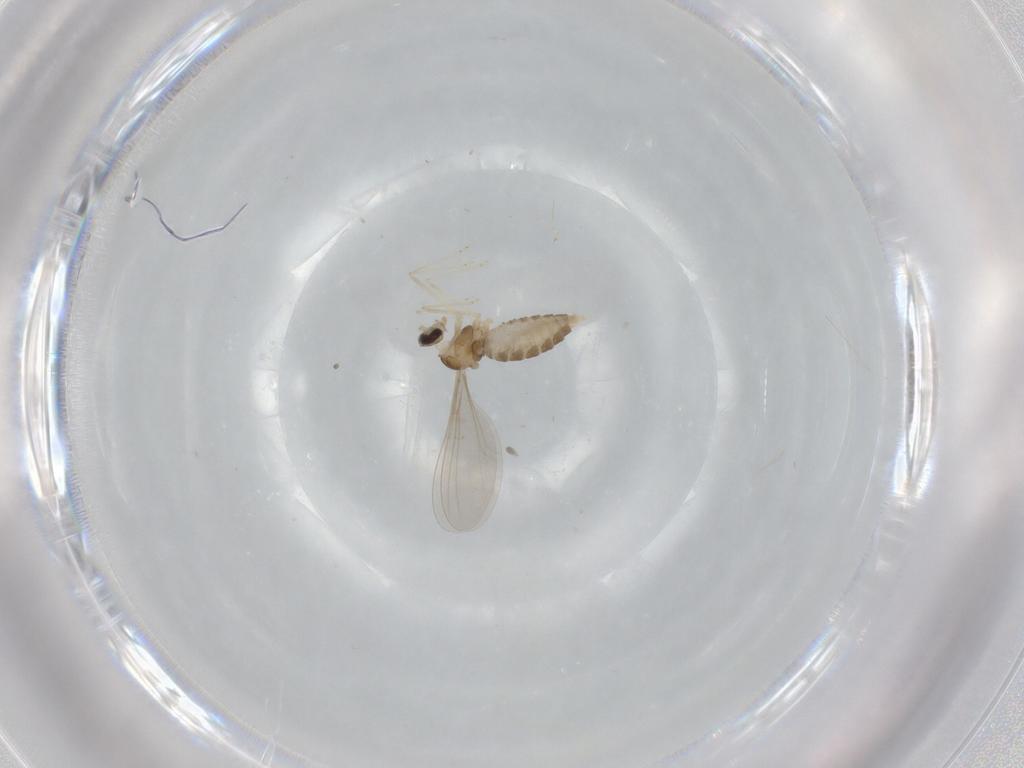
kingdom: Animalia
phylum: Arthropoda
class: Insecta
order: Diptera
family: Cecidomyiidae
